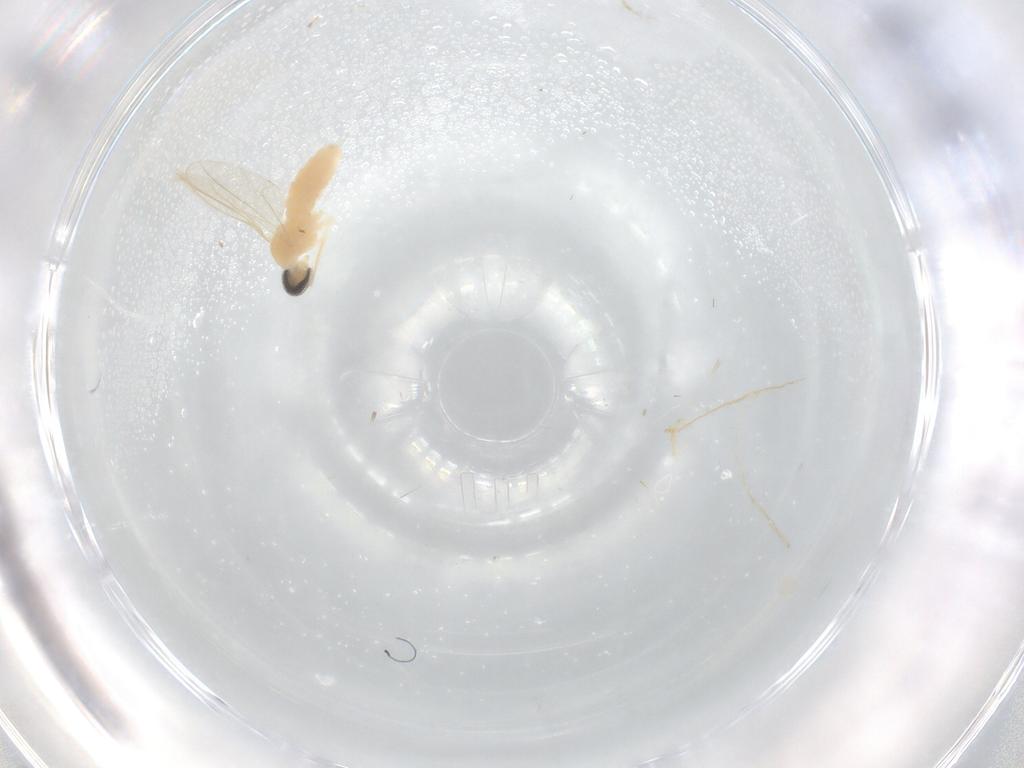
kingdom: Animalia
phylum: Arthropoda
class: Insecta
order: Diptera
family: Cecidomyiidae
